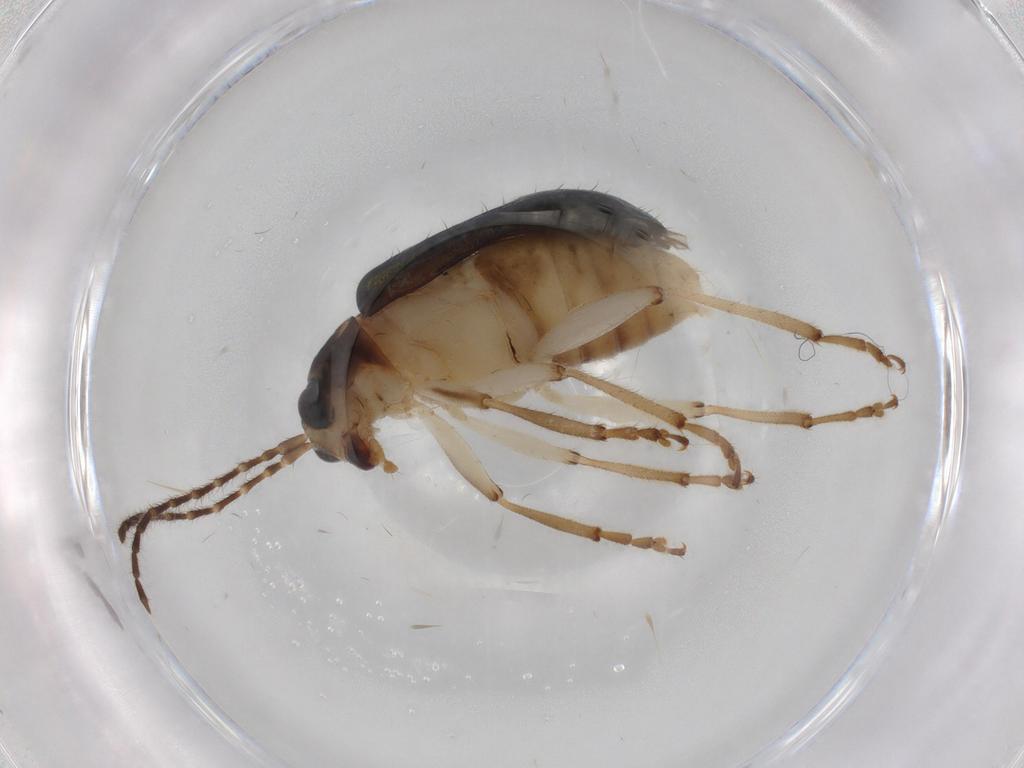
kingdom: Animalia
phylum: Arthropoda
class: Insecta
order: Coleoptera
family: Chrysomelidae
